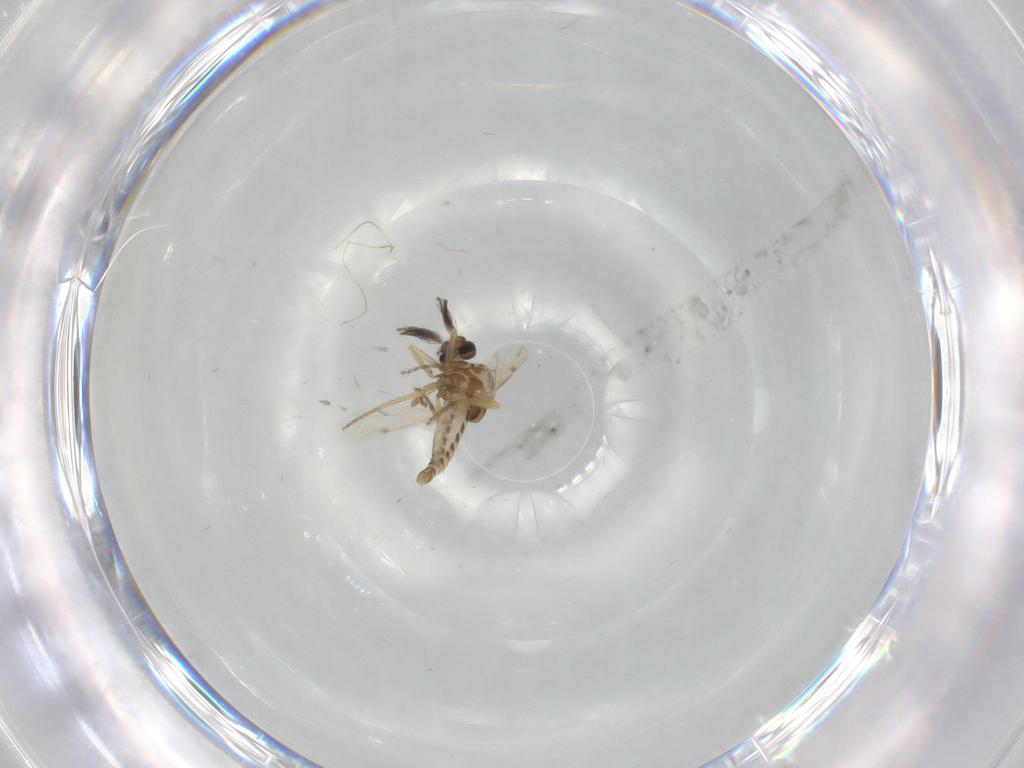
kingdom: Animalia
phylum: Arthropoda
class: Insecta
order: Diptera
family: Ceratopogonidae
